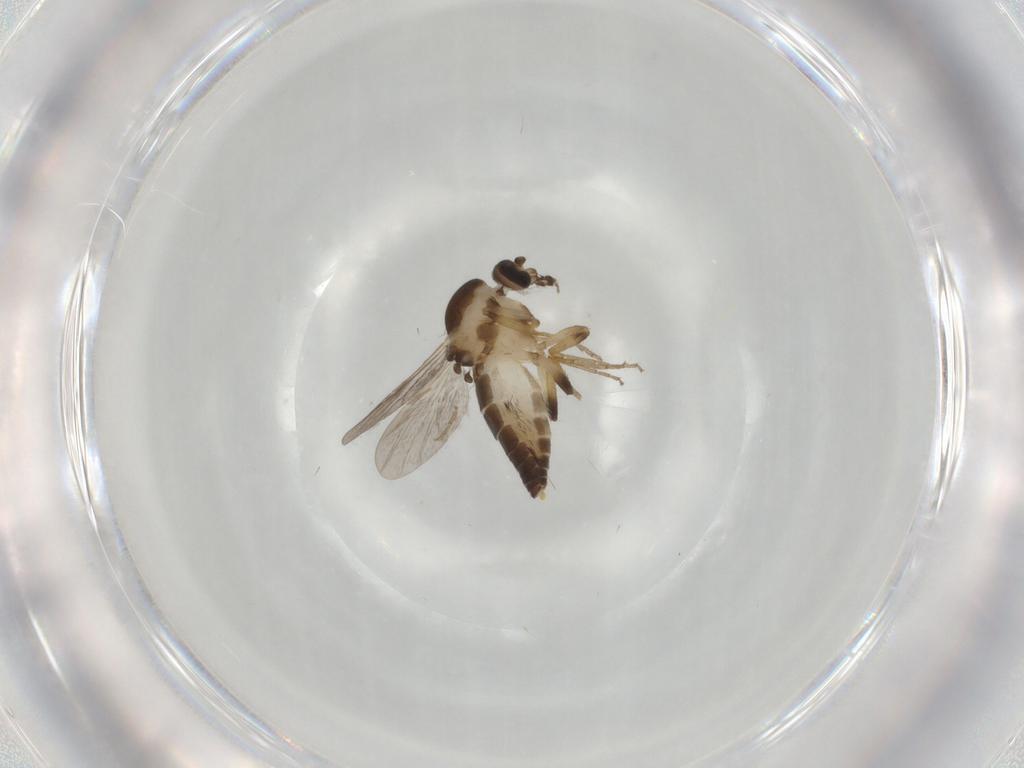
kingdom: Animalia
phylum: Arthropoda
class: Insecta
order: Diptera
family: Ceratopogonidae
